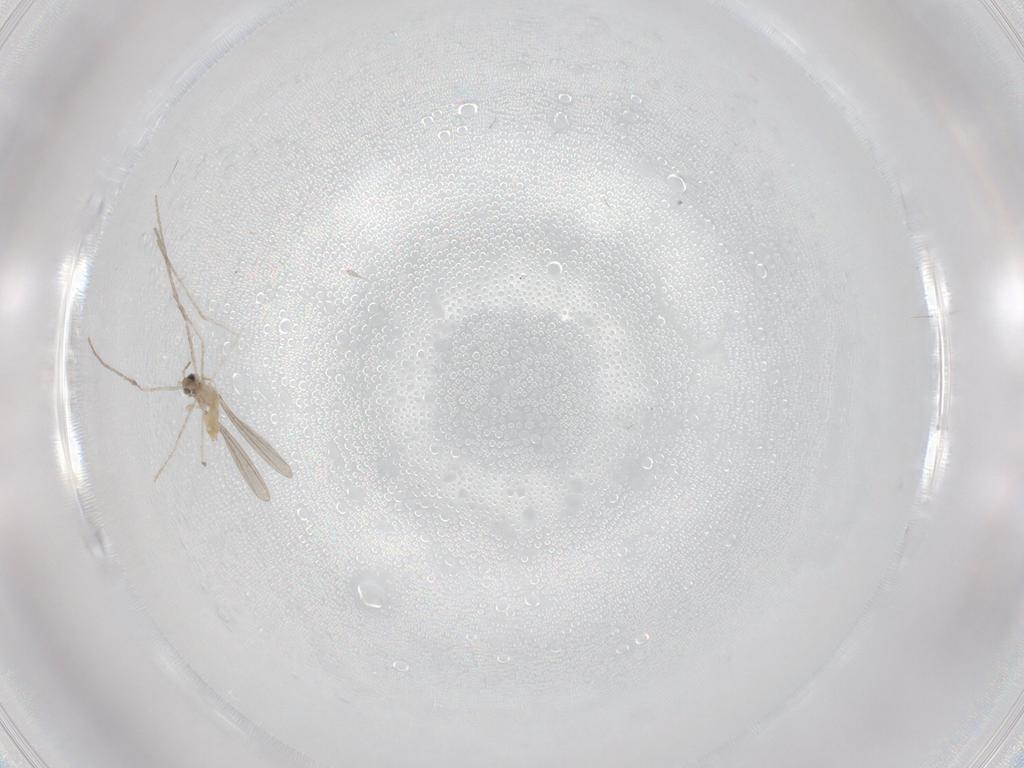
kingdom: Animalia
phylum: Arthropoda
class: Insecta
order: Diptera
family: Cecidomyiidae
